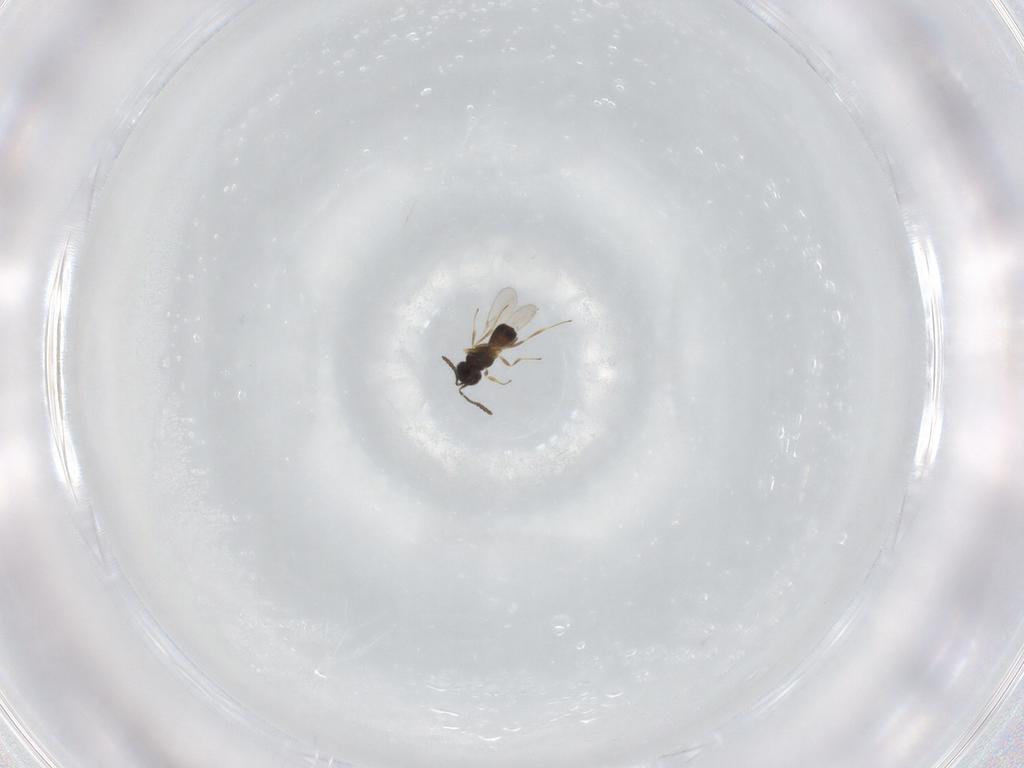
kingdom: Animalia
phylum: Arthropoda
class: Insecta
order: Hymenoptera
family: Scelionidae
